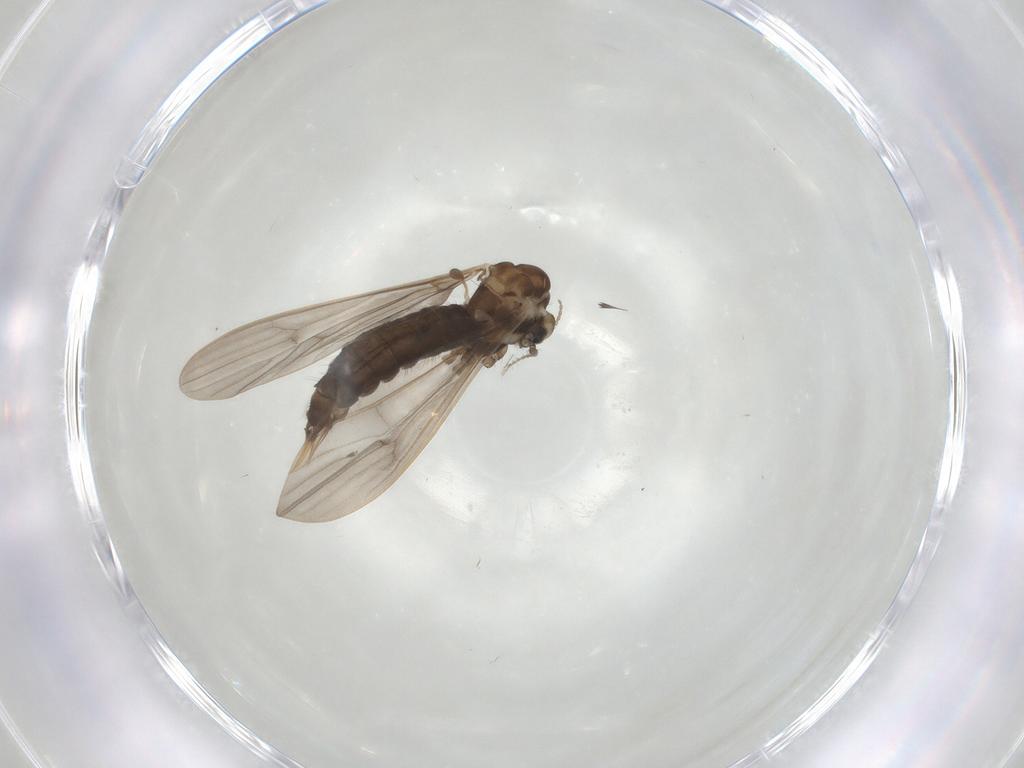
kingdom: Animalia
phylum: Arthropoda
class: Insecta
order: Diptera
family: Limoniidae
